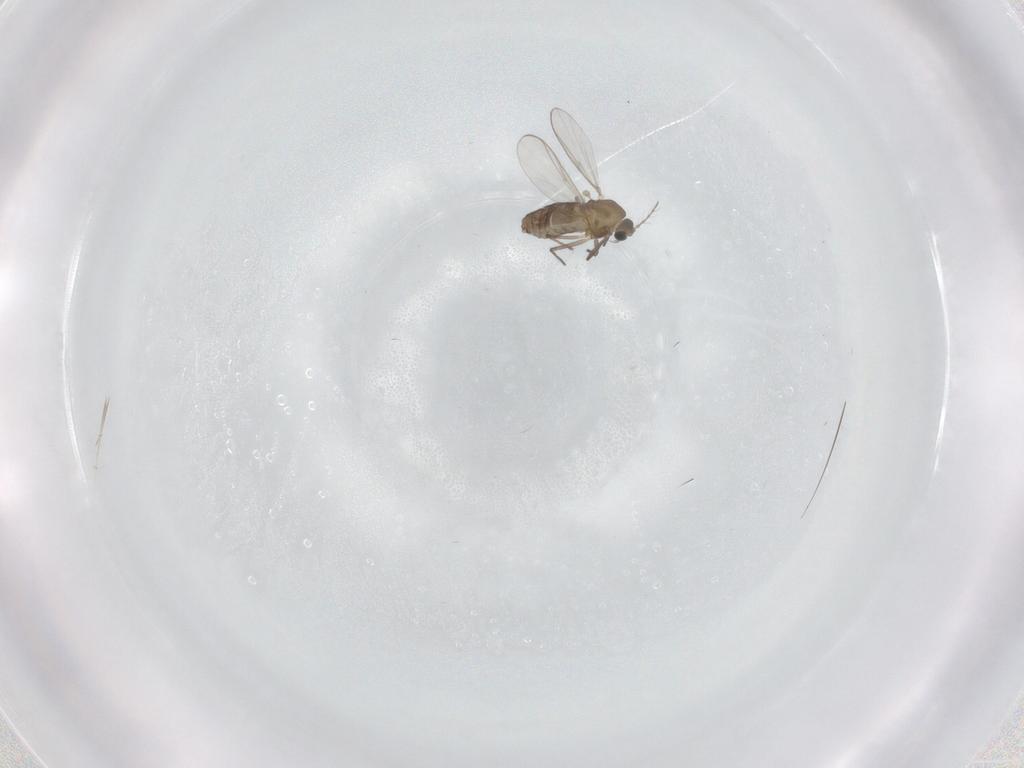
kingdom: Animalia
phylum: Arthropoda
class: Insecta
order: Diptera
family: Chironomidae
